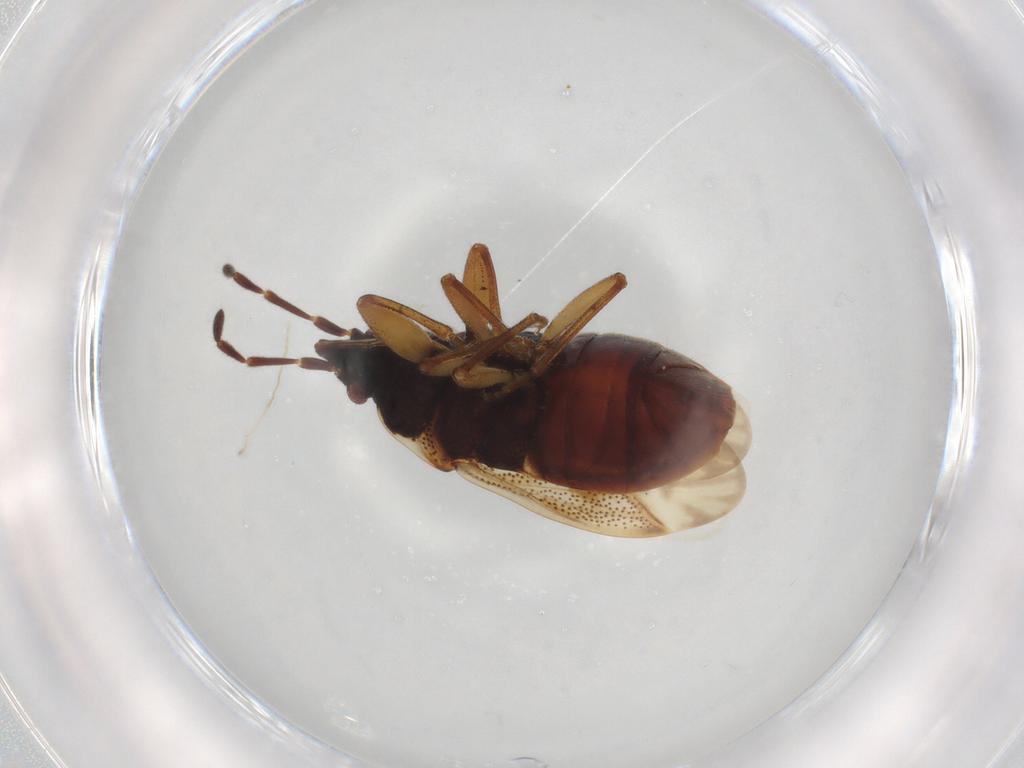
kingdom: Animalia
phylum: Arthropoda
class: Insecta
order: Hemiptera
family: Rhyparochromidae
